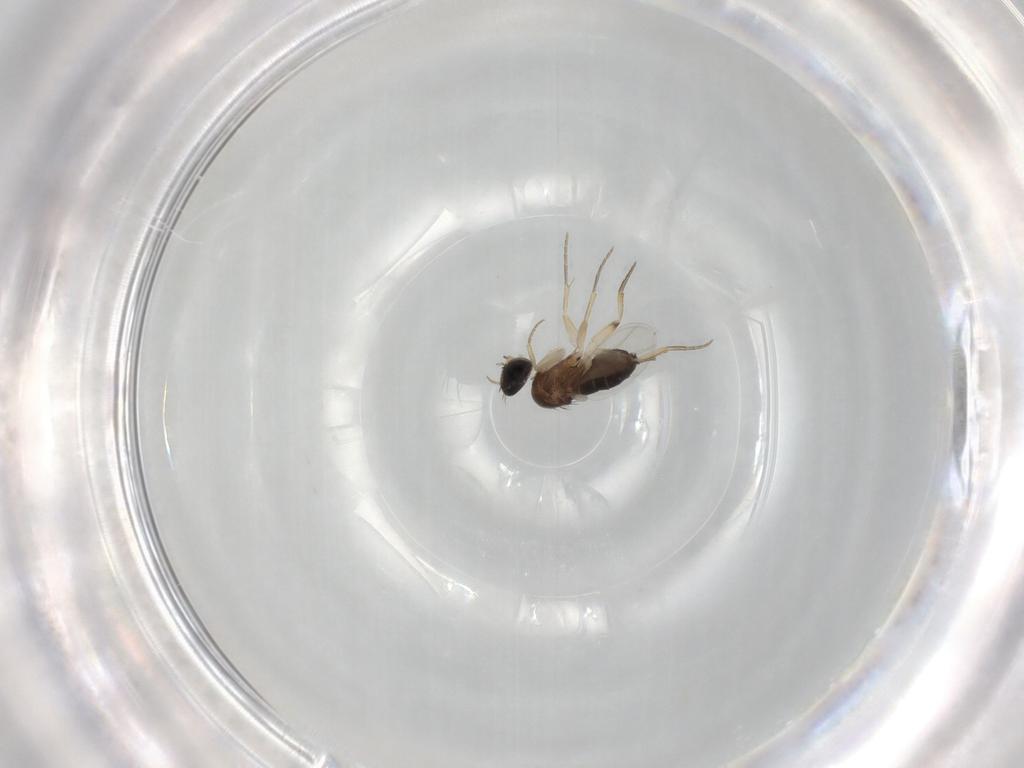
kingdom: Animalia
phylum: Arthropoda
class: Insecta
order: Diptera
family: Phoridae
